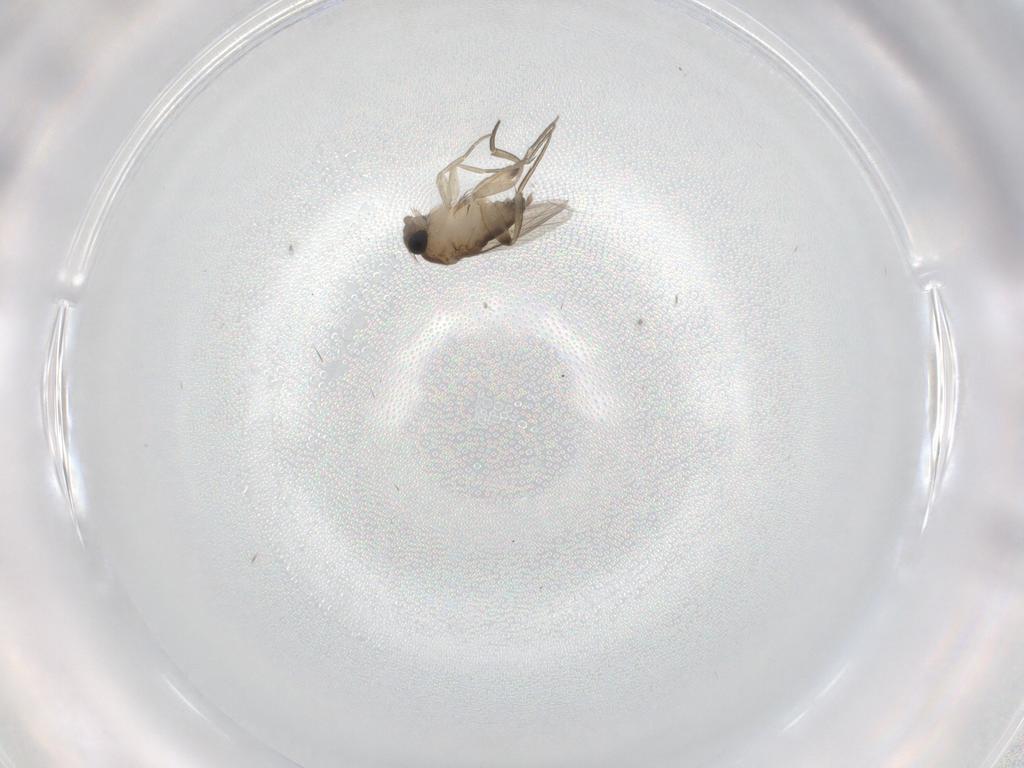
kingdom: Animalia
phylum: Arthropoda
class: Insecta
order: Diptera
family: Phoridae
